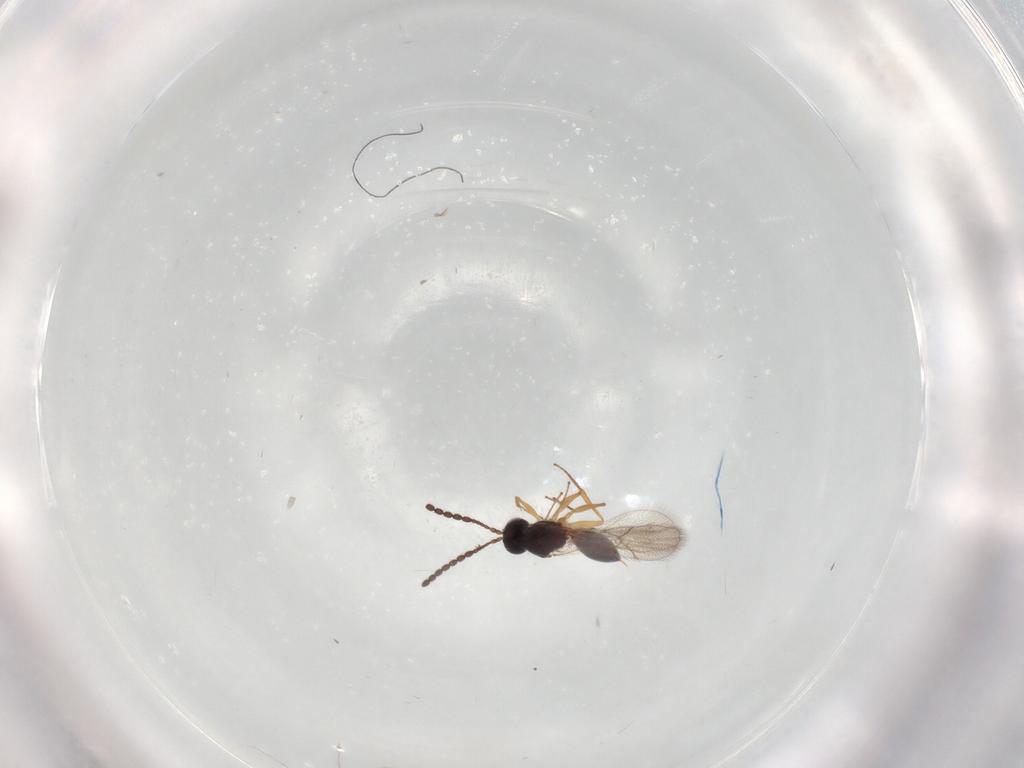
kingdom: Animalia
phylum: Arthropoda
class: Insecta
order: Hymenoptera
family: Figitidae
